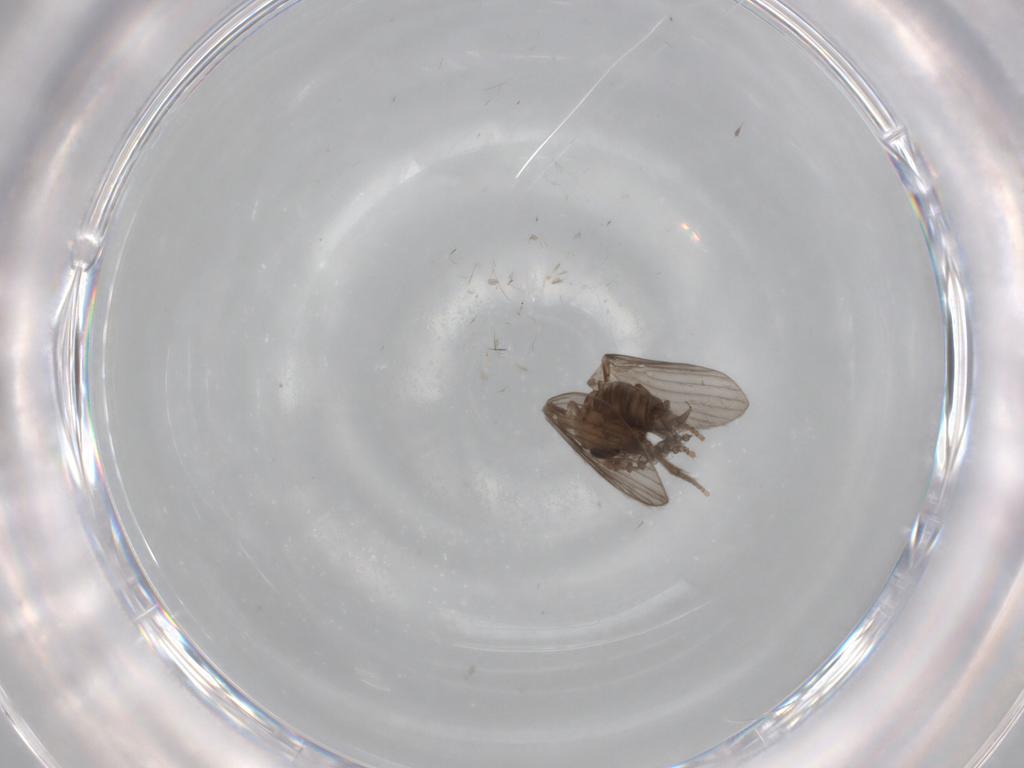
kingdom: Animalia
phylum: Arthropoda
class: Insecta
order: Diptera
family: Psychodidae
